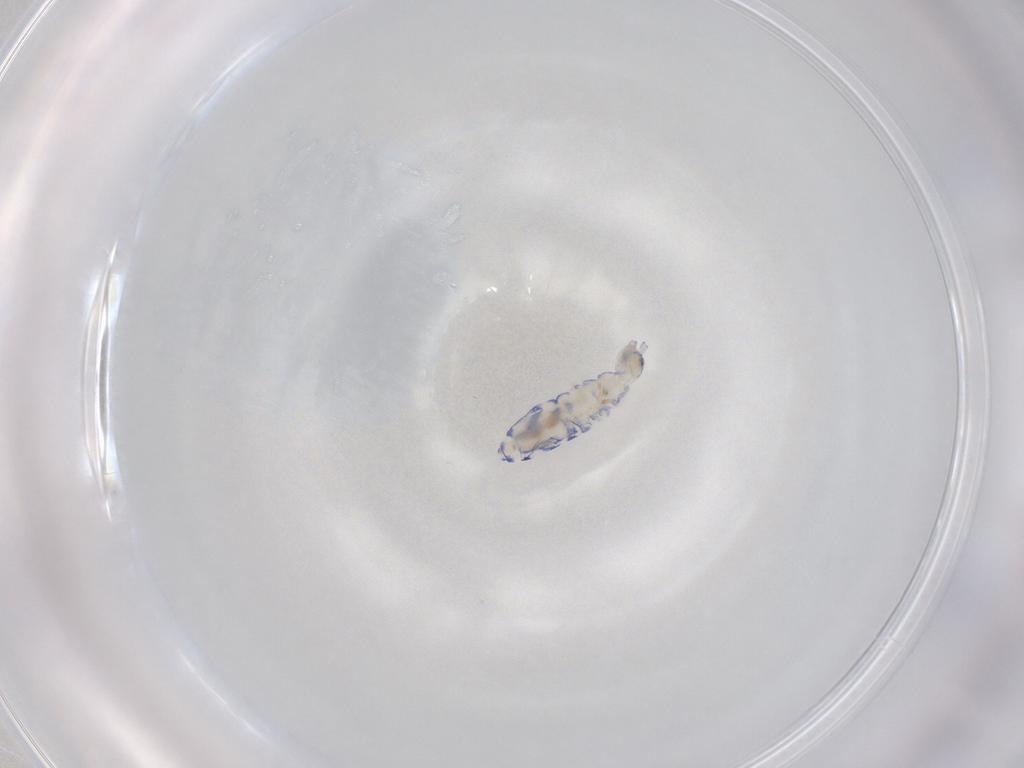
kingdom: Animalia
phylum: Arthropoda
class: Collembola
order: Entomobryomorpha
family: Entomobryidae
